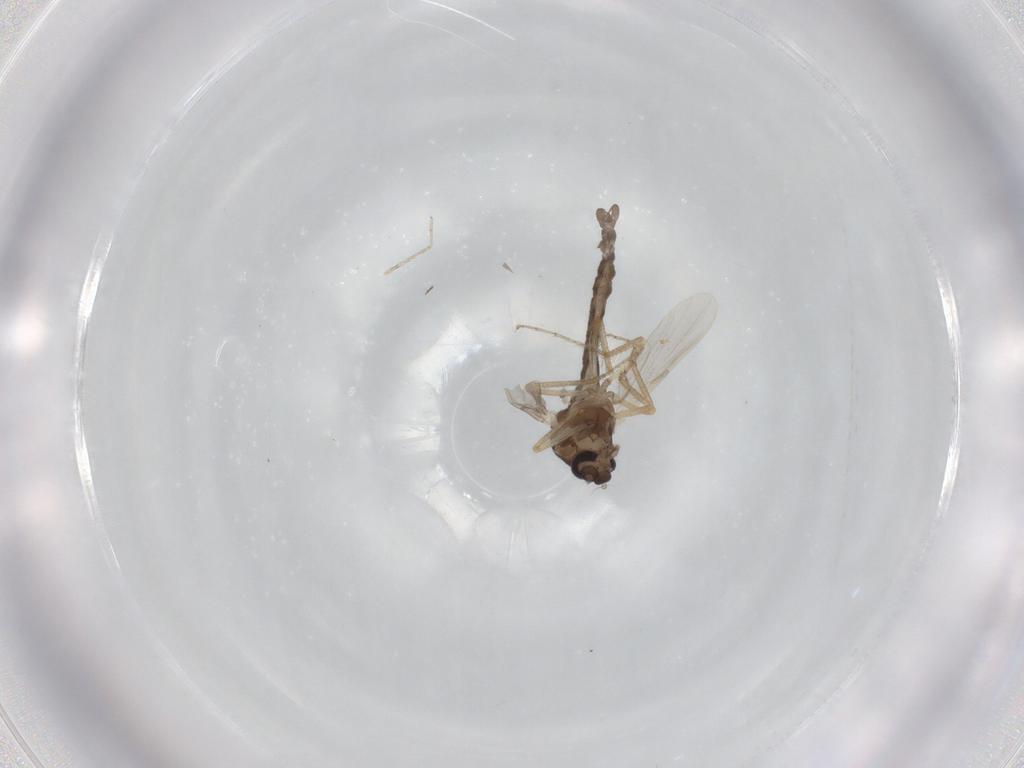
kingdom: Animalia
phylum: Arthropoda
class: Insecta
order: Diptera
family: Ceratopogonidae
